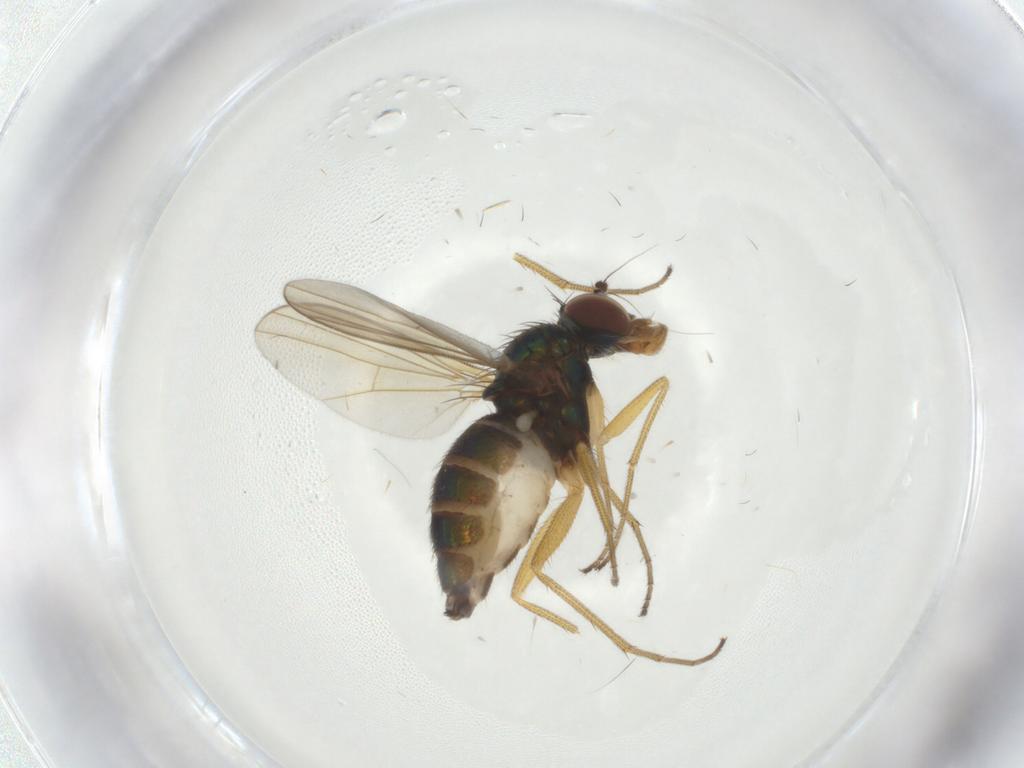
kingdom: Animalia
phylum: Arthropoda
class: Insecta
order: Diptera
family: Dolichopodidae
